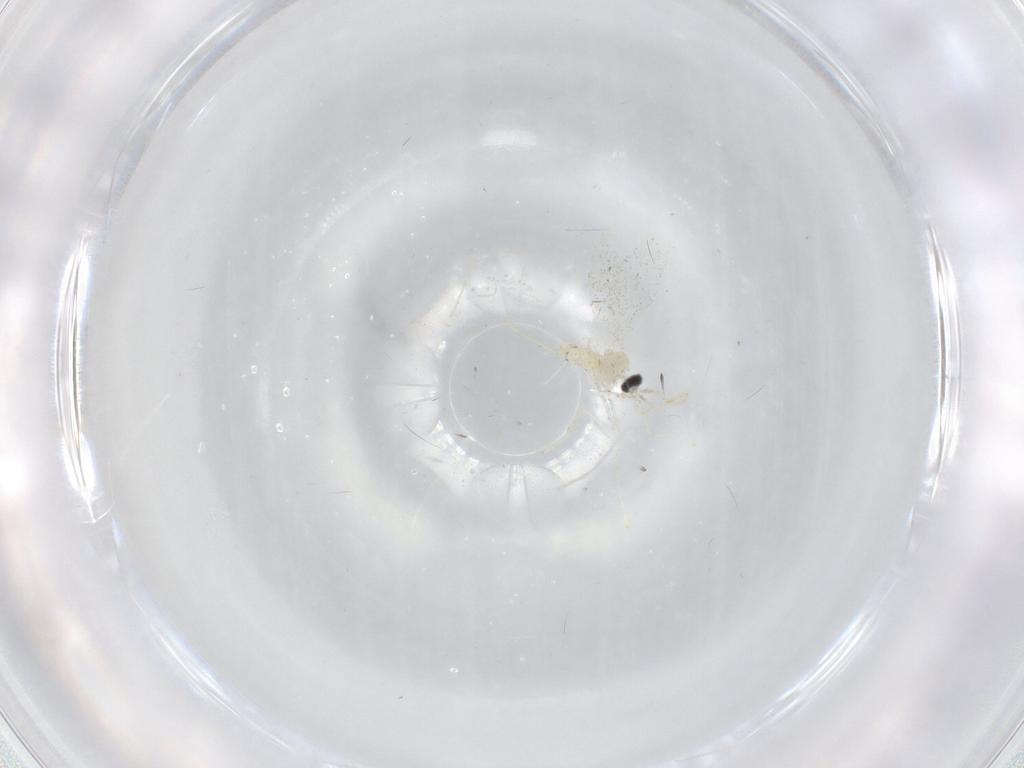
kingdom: Animalia
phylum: Arthropoda
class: Insecta
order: Diptera
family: Cecidomyiidae
